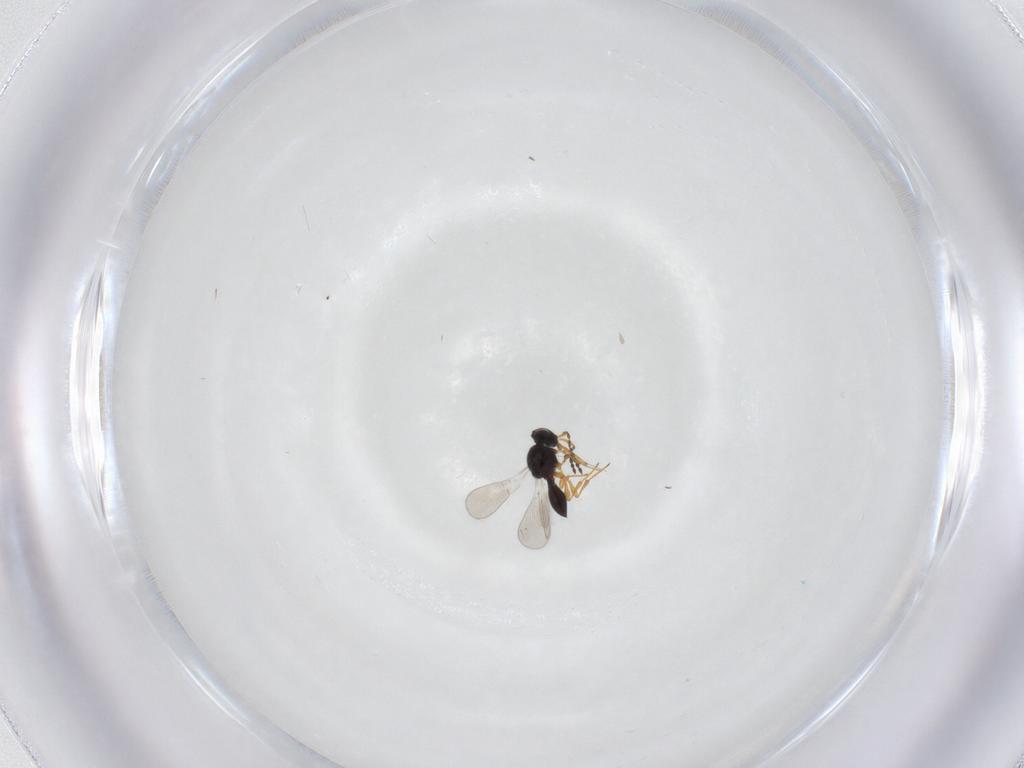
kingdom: Animalia
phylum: Arthropoda
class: Insecta
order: Hymenoptera
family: Platygastridae
